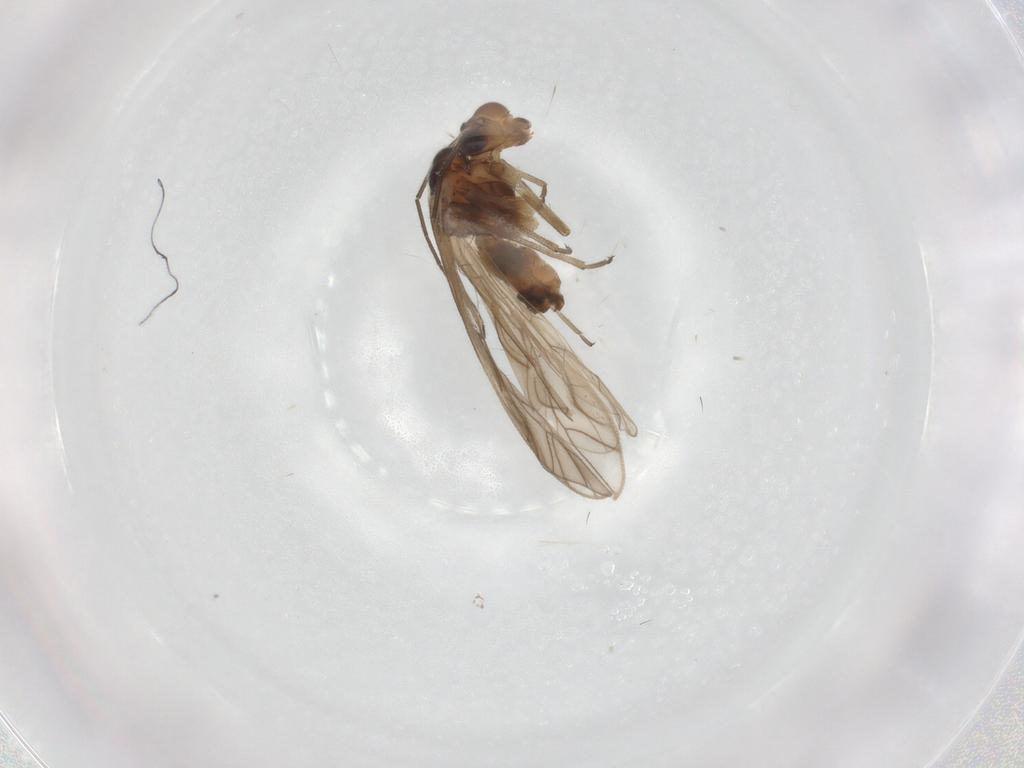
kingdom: Animalia
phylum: Arthropoda
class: Insecta
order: Psocodea
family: Philotarsidae
